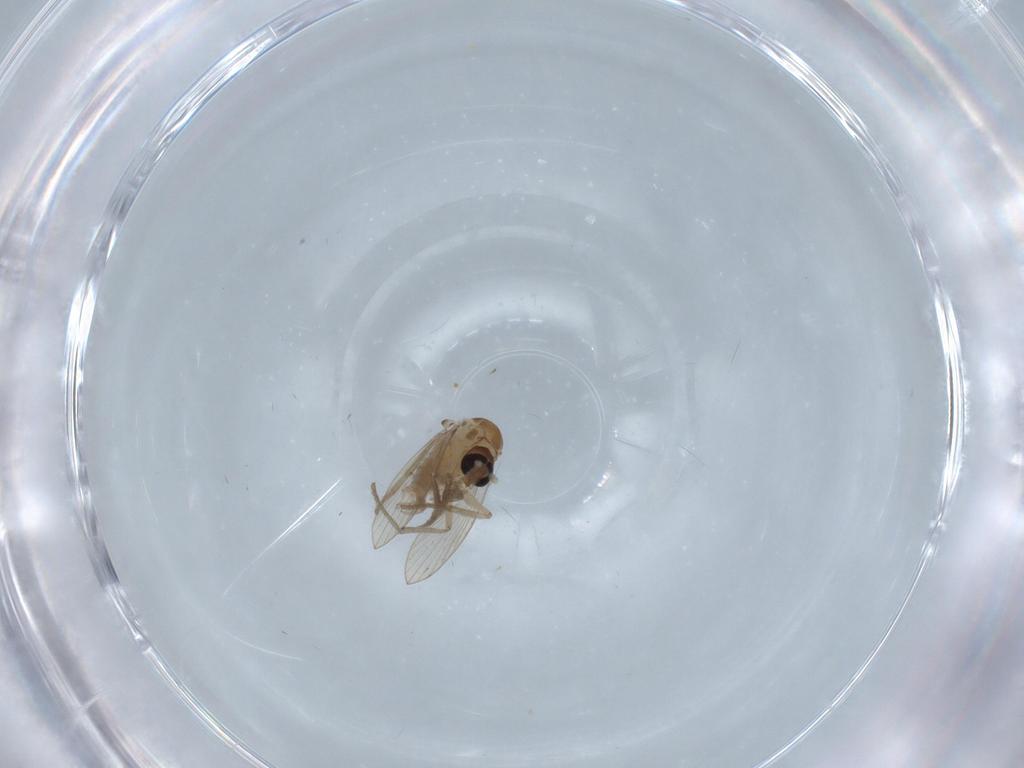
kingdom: Animalia
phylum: Arthropoda
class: Insecta
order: Diptera
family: Psychodidae
